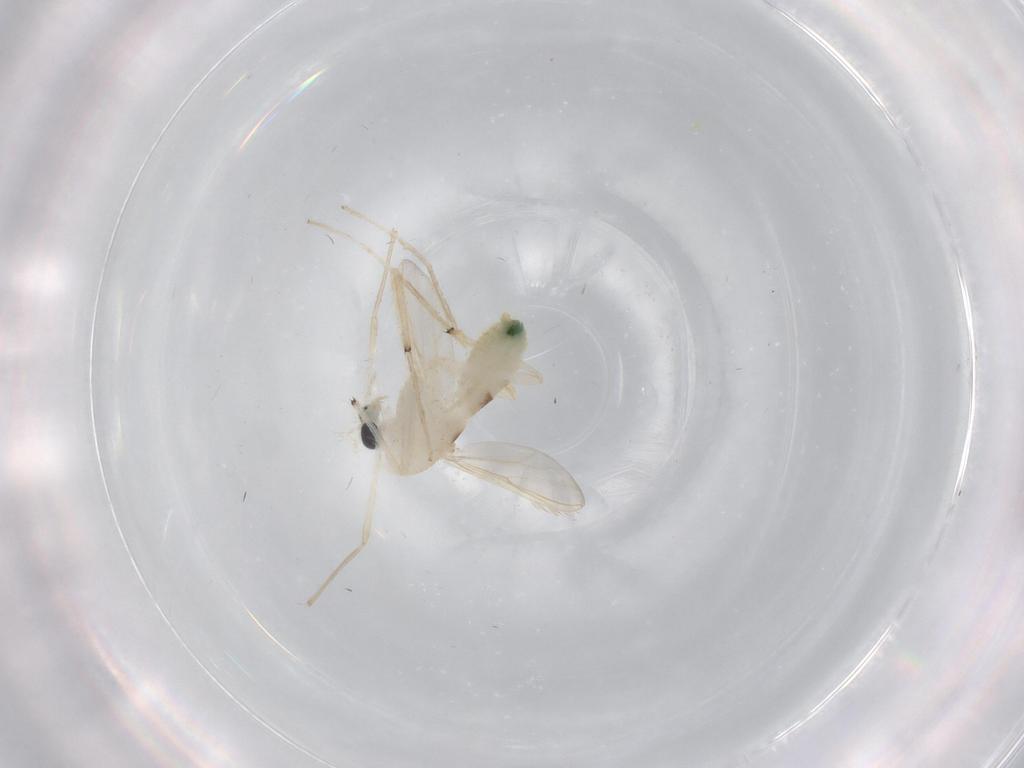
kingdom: Animalia
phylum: Arthropoda
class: Insecta
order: Diptera
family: Chironomidae
